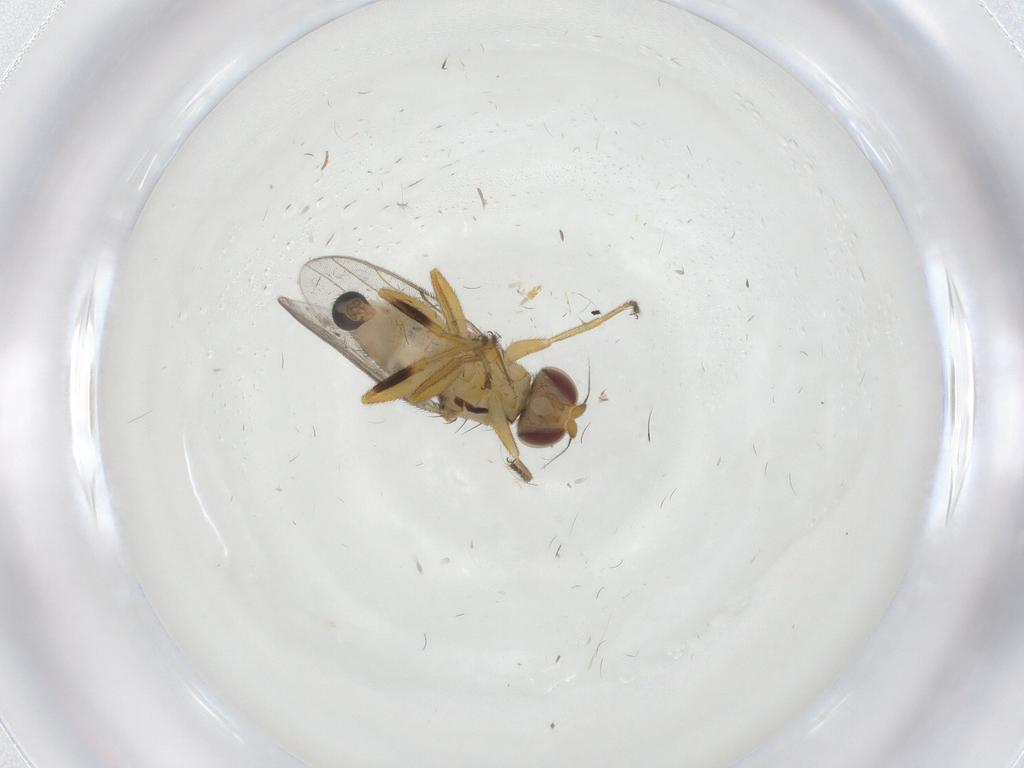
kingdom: Animalia
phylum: Arthropoda
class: Insecta
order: Diptera
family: Chloropidae
